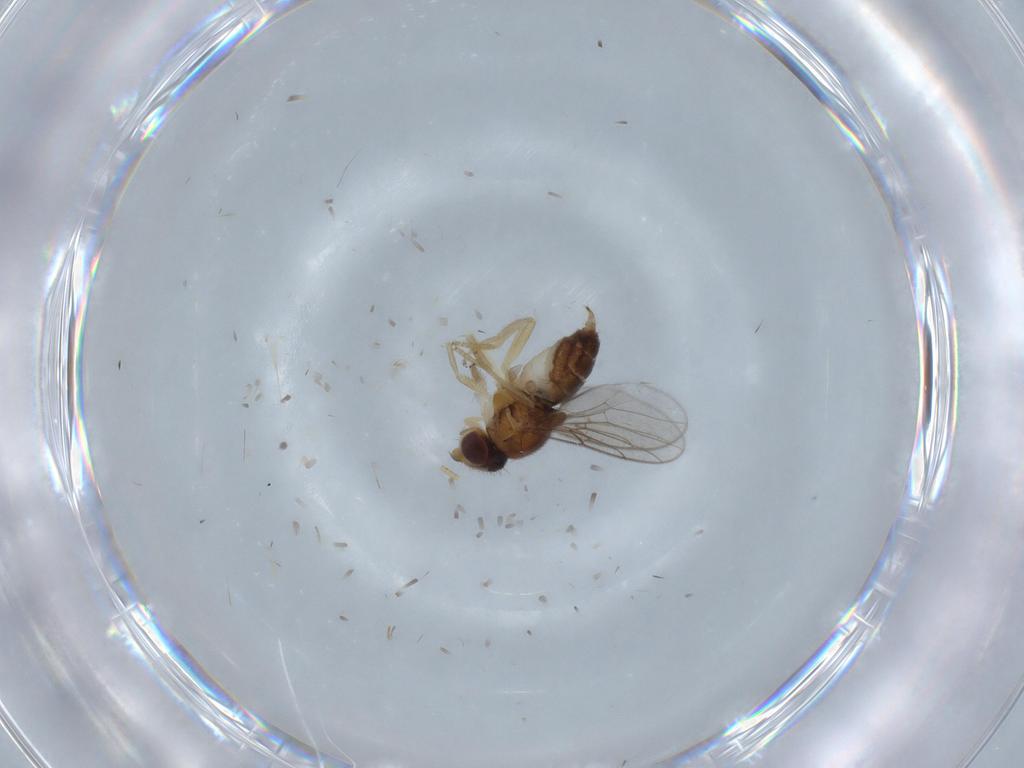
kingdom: Animalia
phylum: Arthropoda
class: Insecta
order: Diptera
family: Chloropidae
